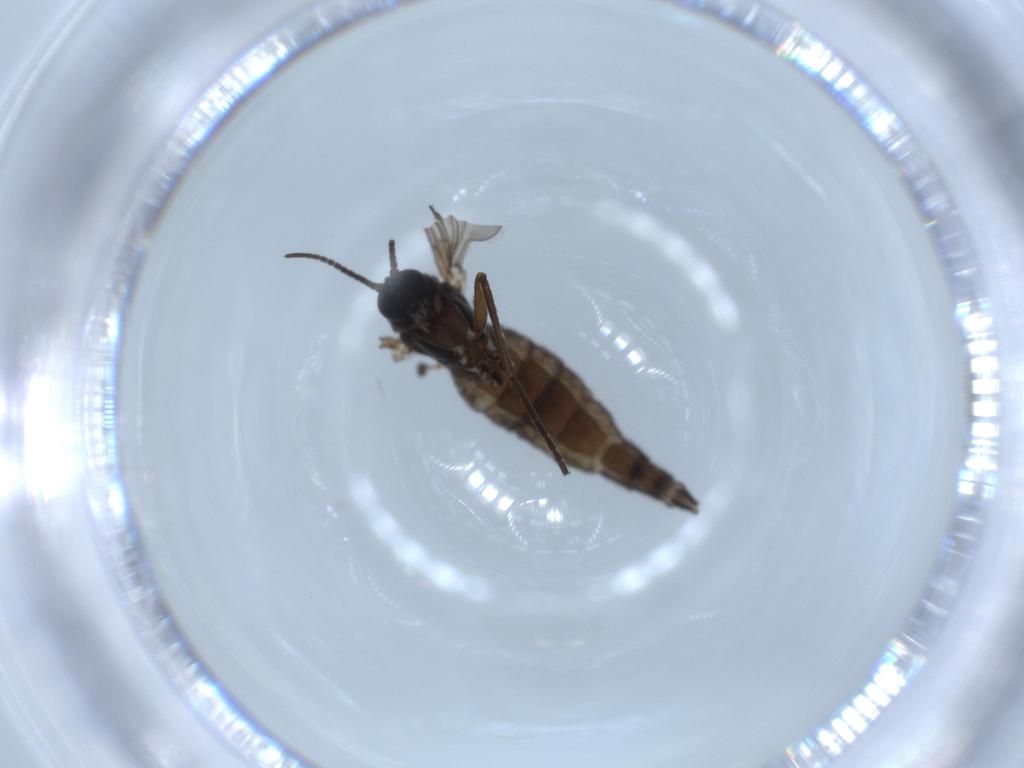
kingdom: Animalia
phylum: Arthropoda
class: Insecta
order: Diptera
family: Sciaridae
